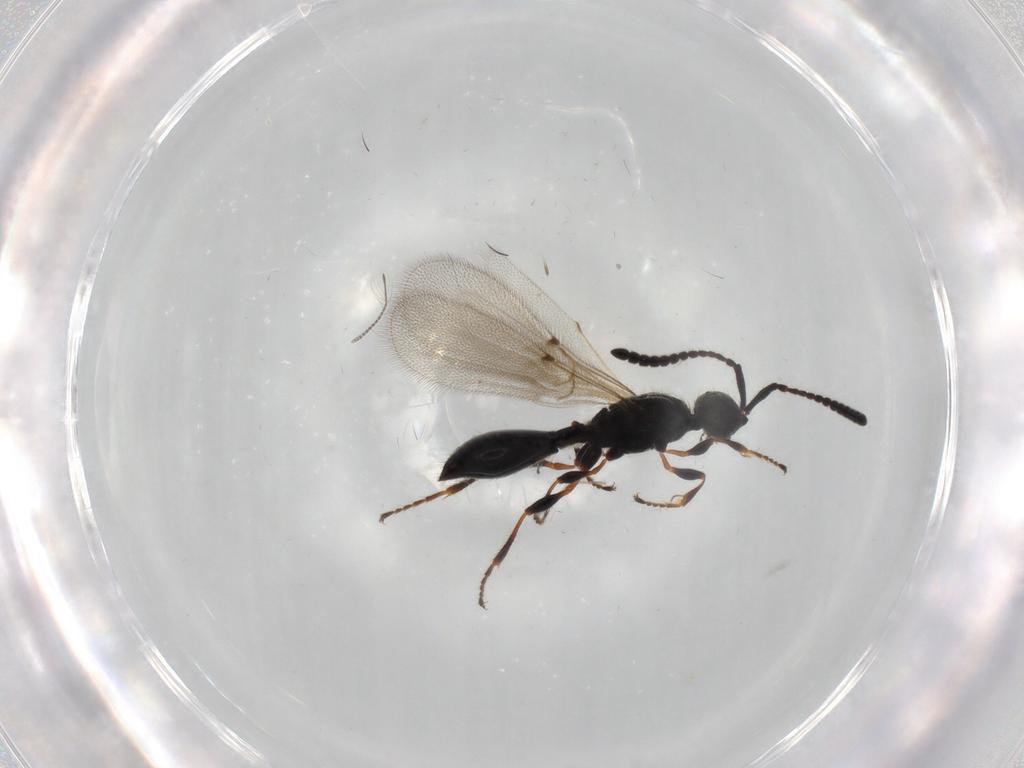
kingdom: Animalia
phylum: Arthropoda
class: Insecta
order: Hymenoptera
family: Diapriidae
